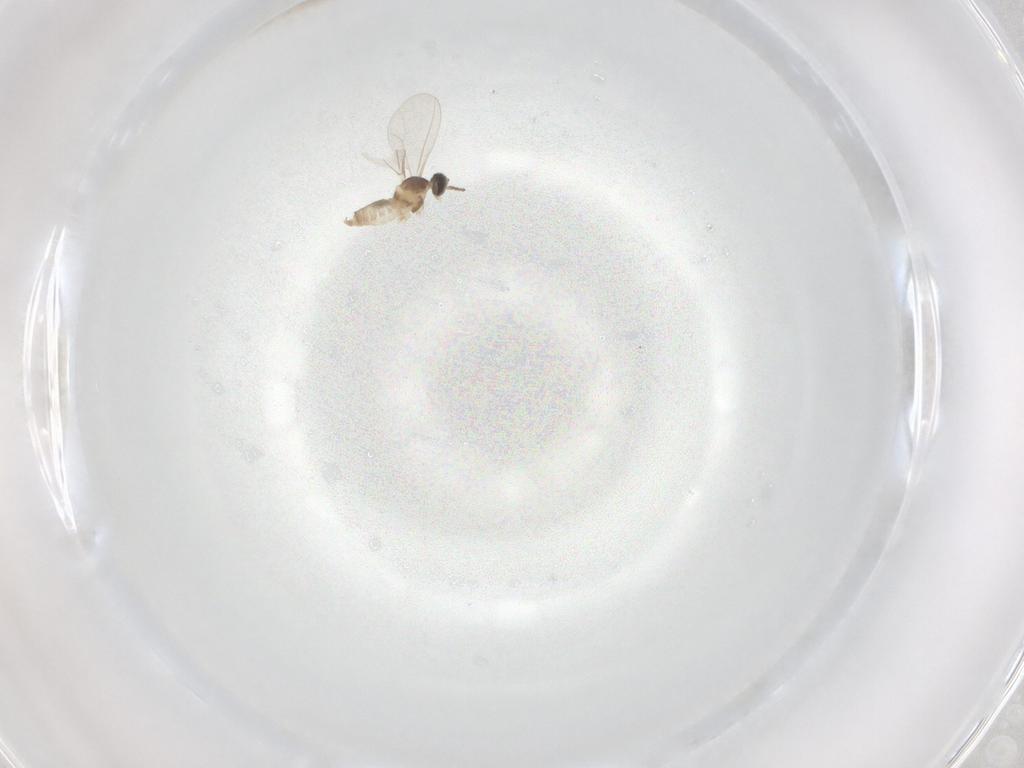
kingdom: Animalia
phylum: Arthropoda
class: Insecta
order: Diptera
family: Cecidomyiidae
